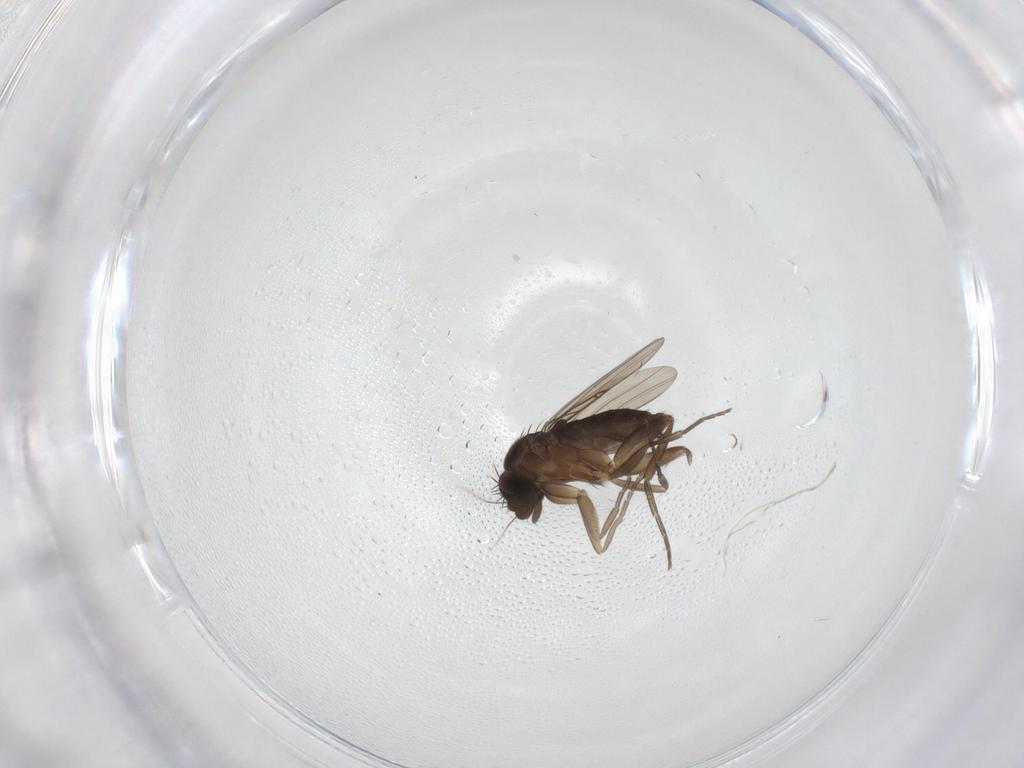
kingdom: Animalia
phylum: Arthropoda
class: Insecta
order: Diptera
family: Phoridae
